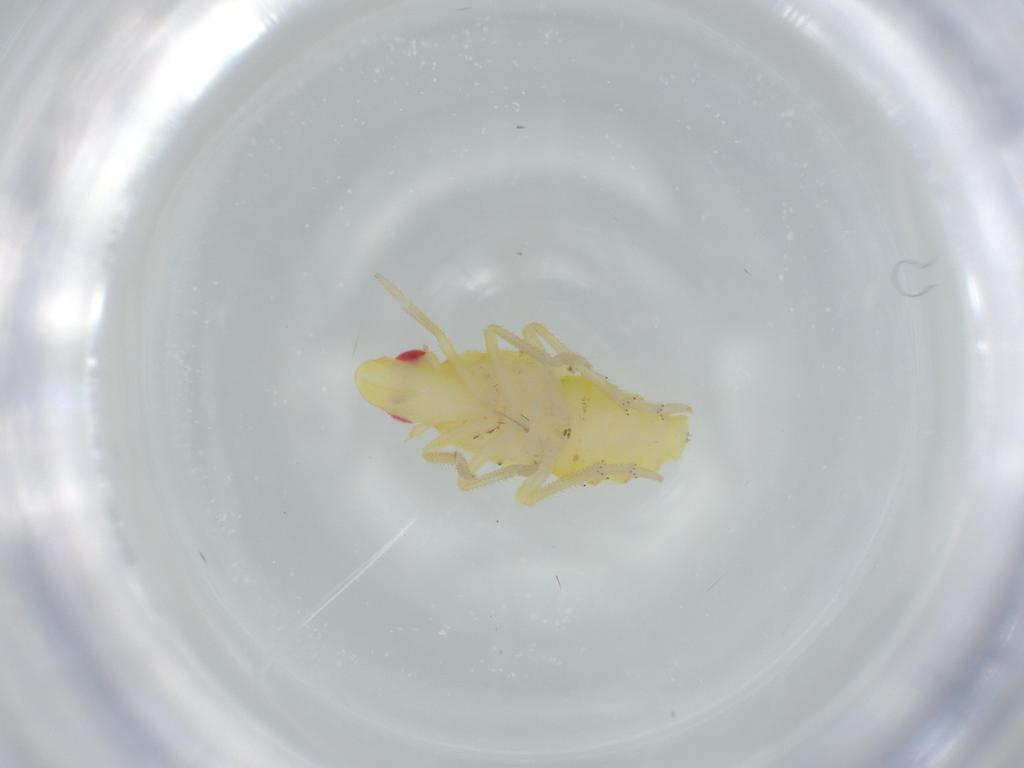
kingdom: Animalia
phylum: Arthropoda
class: Insecta
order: Hemiptera
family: Tropiduchidae
